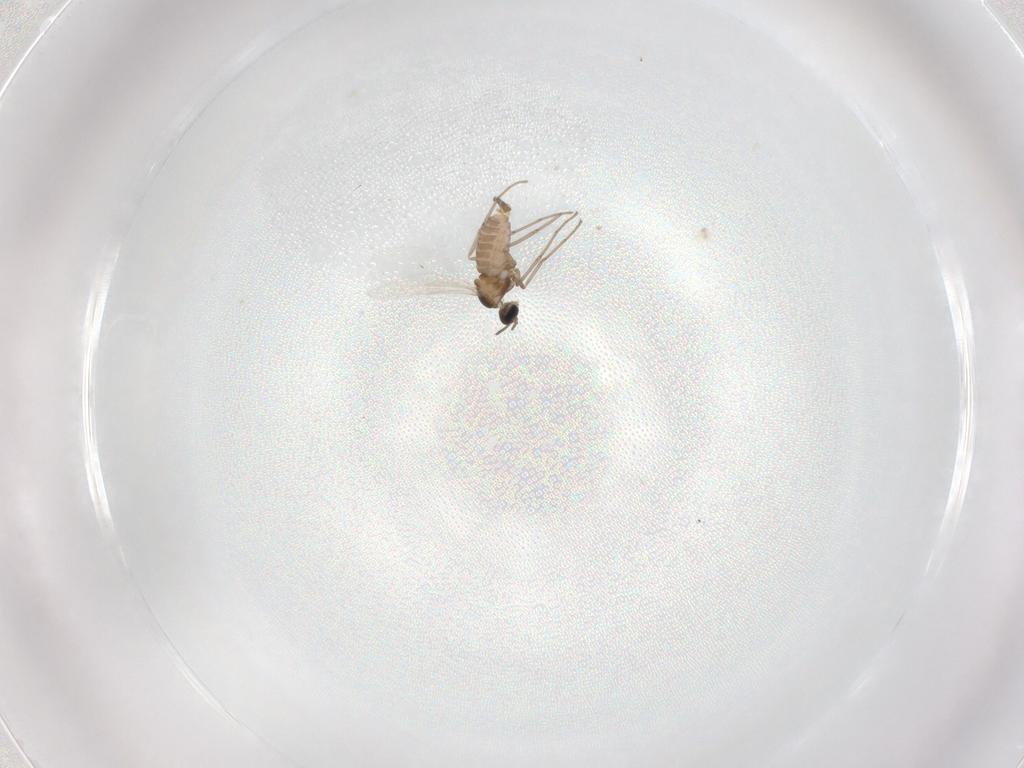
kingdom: Animalia
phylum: Arthropoda
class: Insecta
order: Diptera
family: Cecidomyiidae
